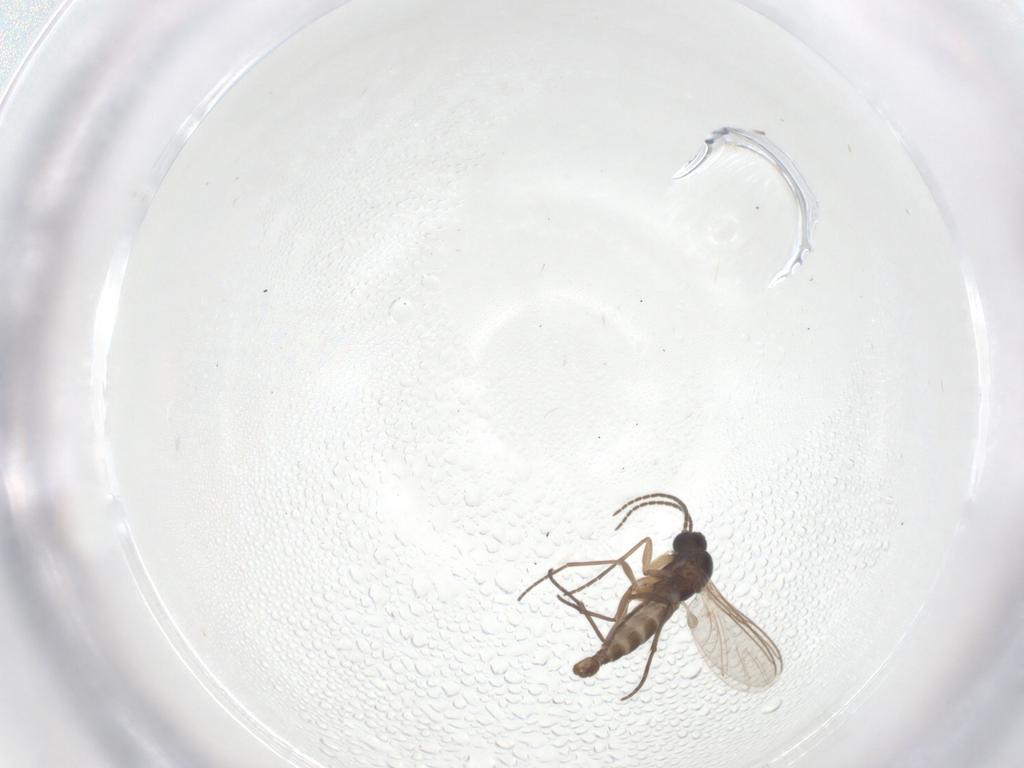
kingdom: Animalia
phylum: Arthropoda
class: Insecta
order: Diptera
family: Sciaridae
